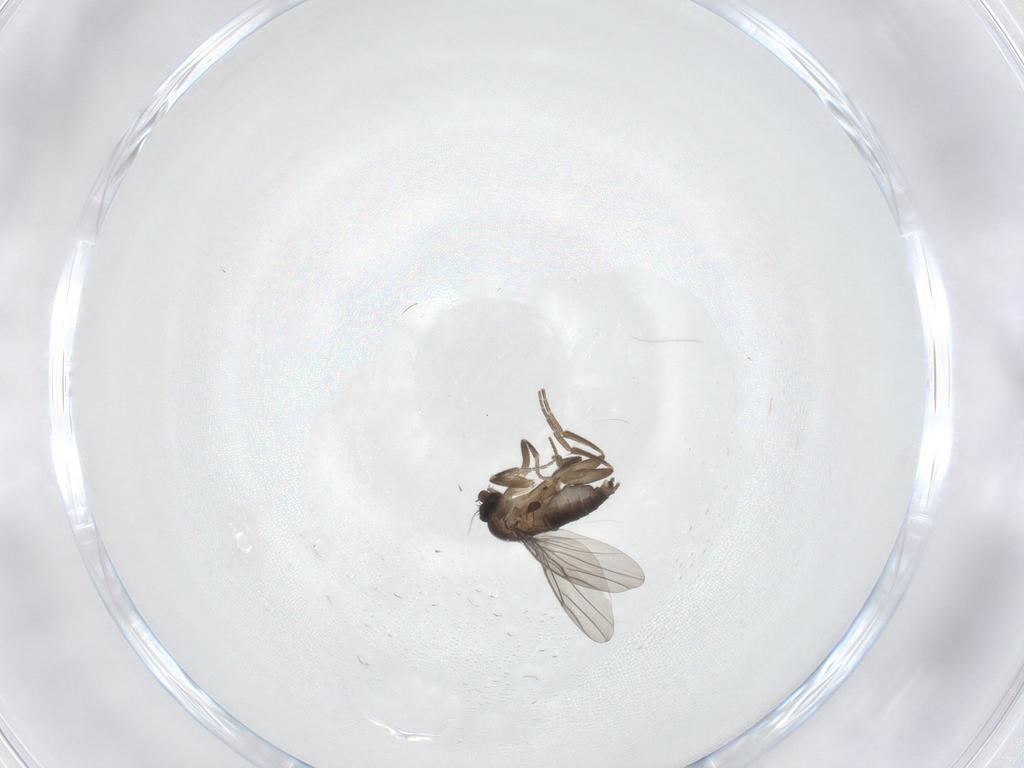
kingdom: Animalia
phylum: Arthropoda
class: Insecta
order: Diptera
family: Phoridae
